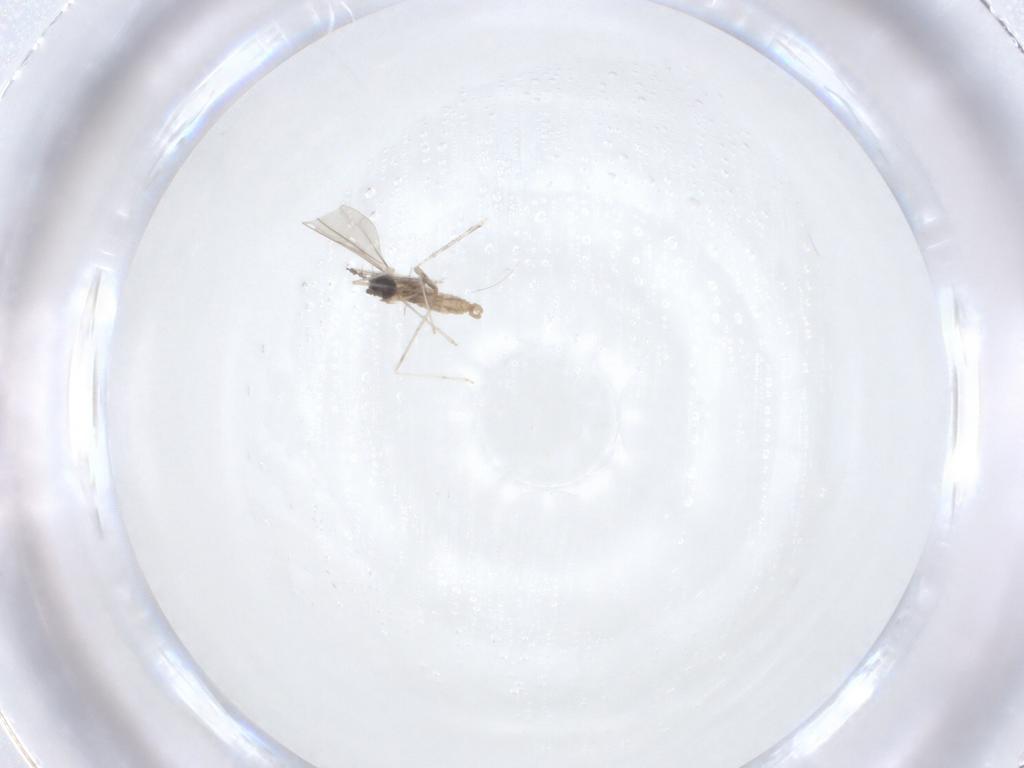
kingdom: Animalia
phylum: Arthropoda
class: Insecta
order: Diptera
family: Cecidomyiidae
